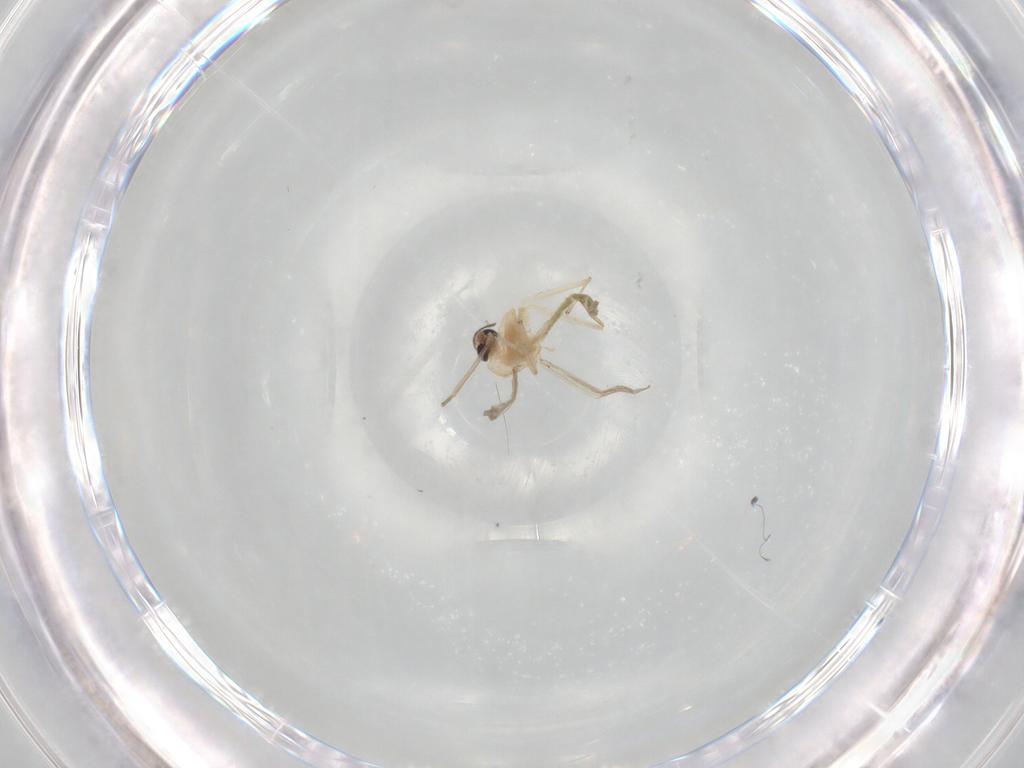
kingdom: Animalia
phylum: Arthropoda
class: Insecta
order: Diptera
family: Chironomidae
